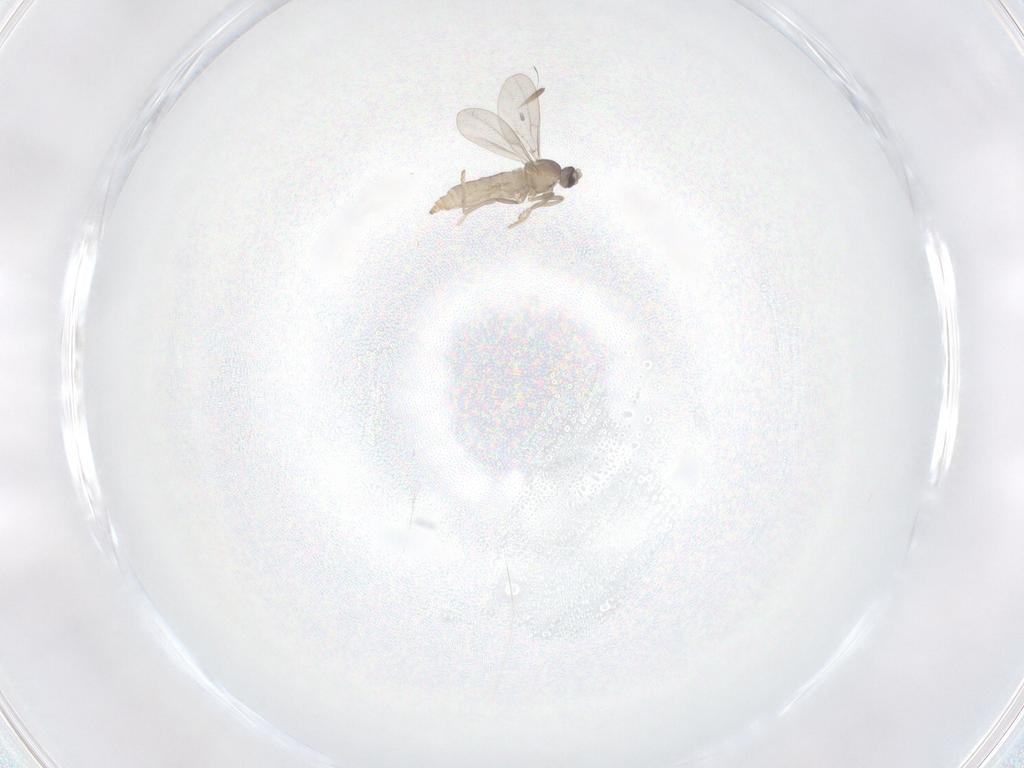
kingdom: Animalia
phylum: Arthropoda
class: Insecta
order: Diptera
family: Cecidomyiidae
